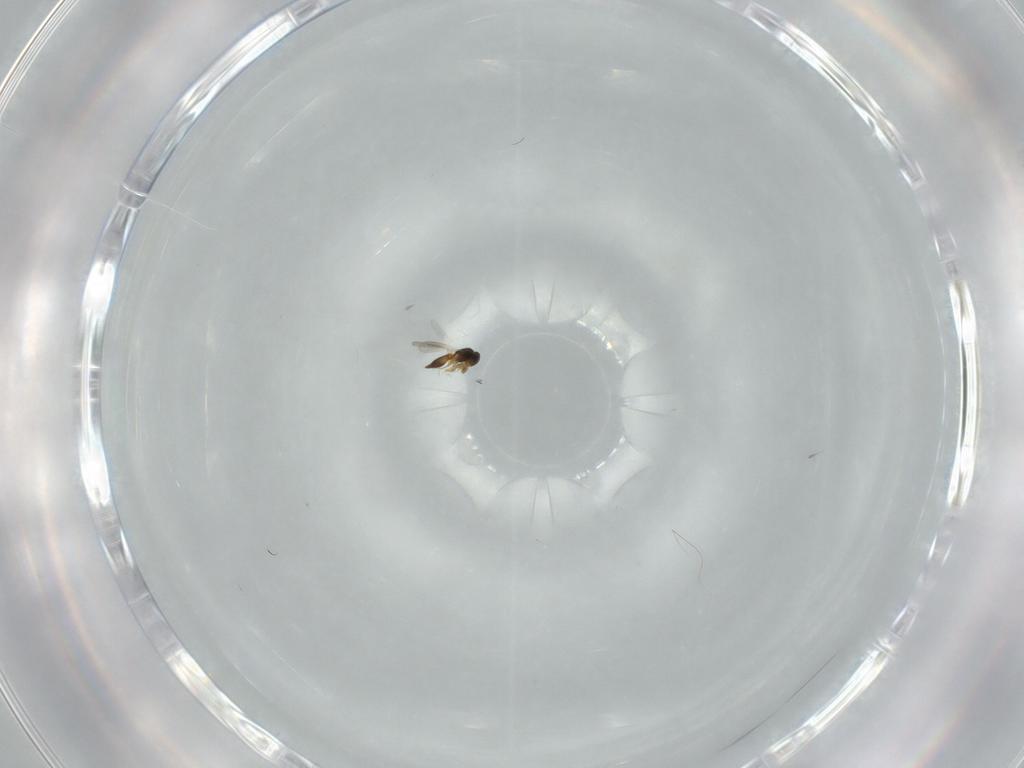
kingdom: Animalia
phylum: Arthropoda
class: Insecta
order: Hymenoptera
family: Platygastridae
